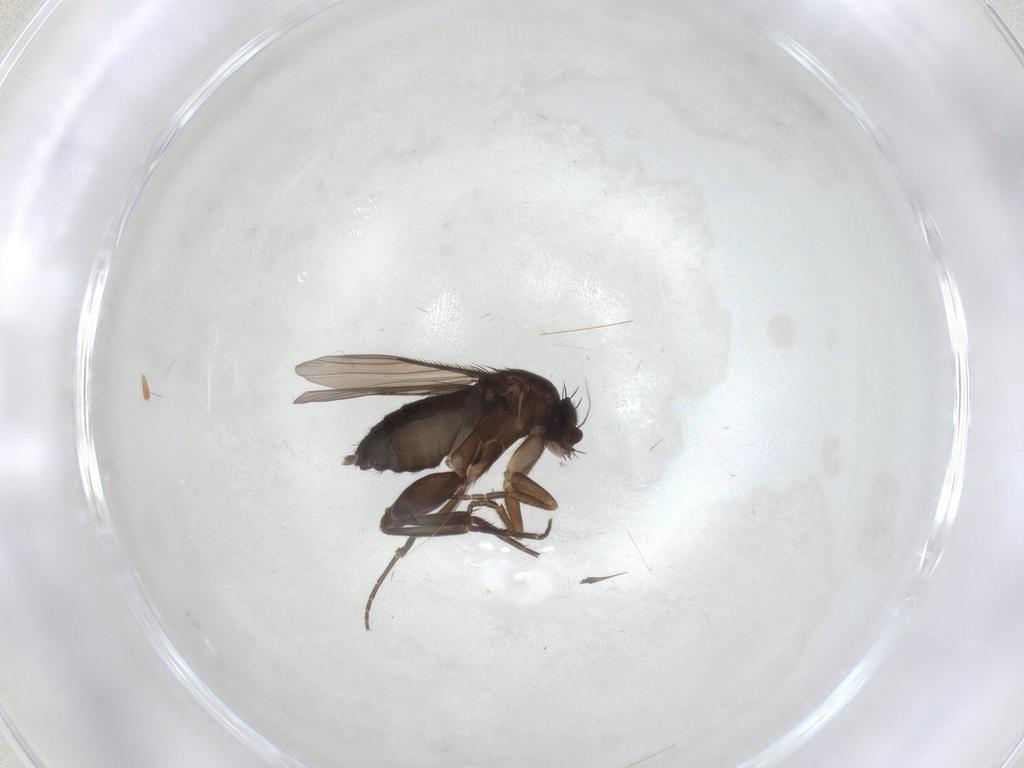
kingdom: Animalia
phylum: Arthropoda
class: Insecta
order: Diptera
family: Phoridae
